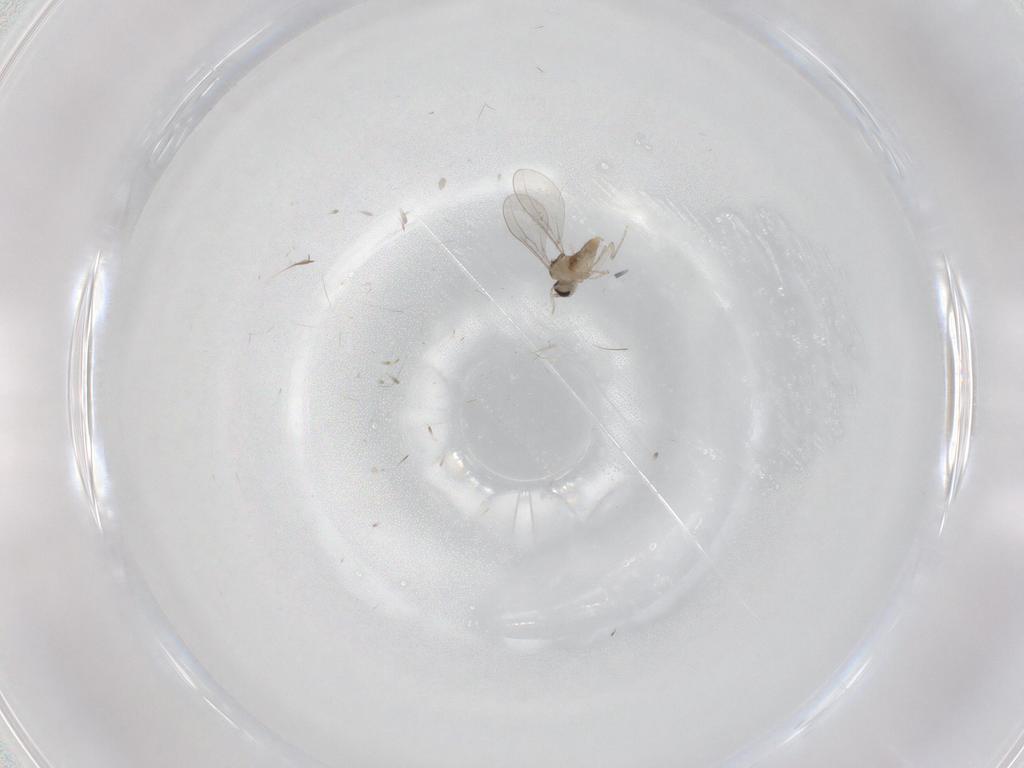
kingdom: Animalia
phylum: Arthropoda
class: Insecta
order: Diptera
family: Cecidomyiidae
